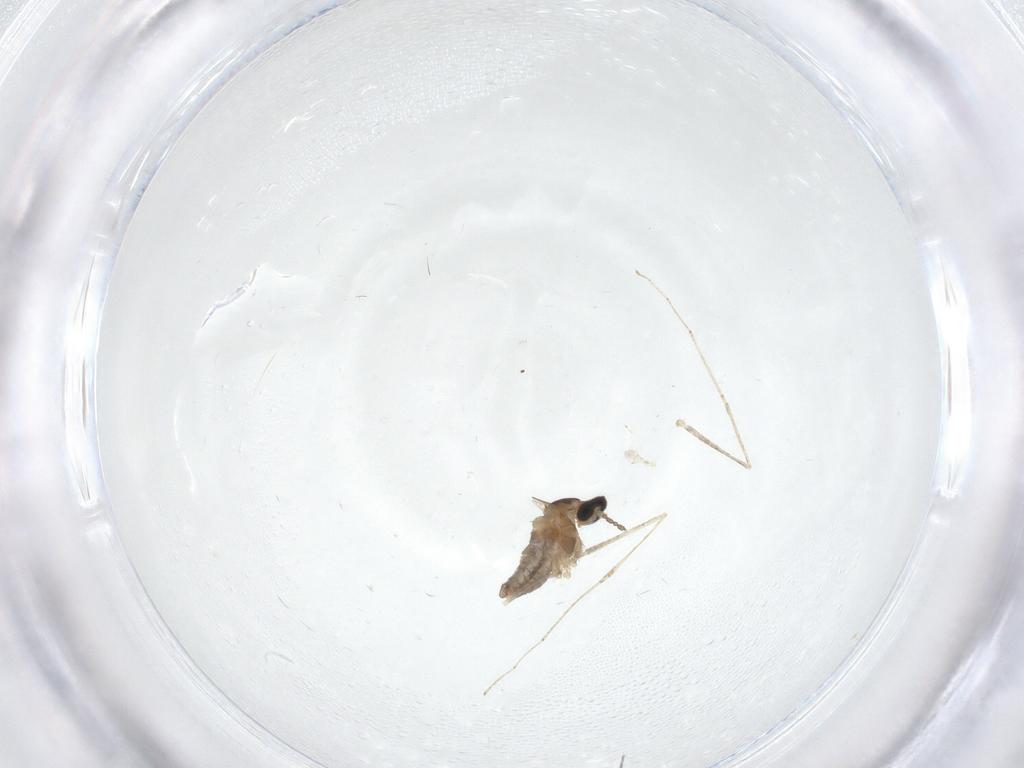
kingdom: Animalia
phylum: Arthropoda
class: Insecta
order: Diptera
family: Cecidomyiidae
